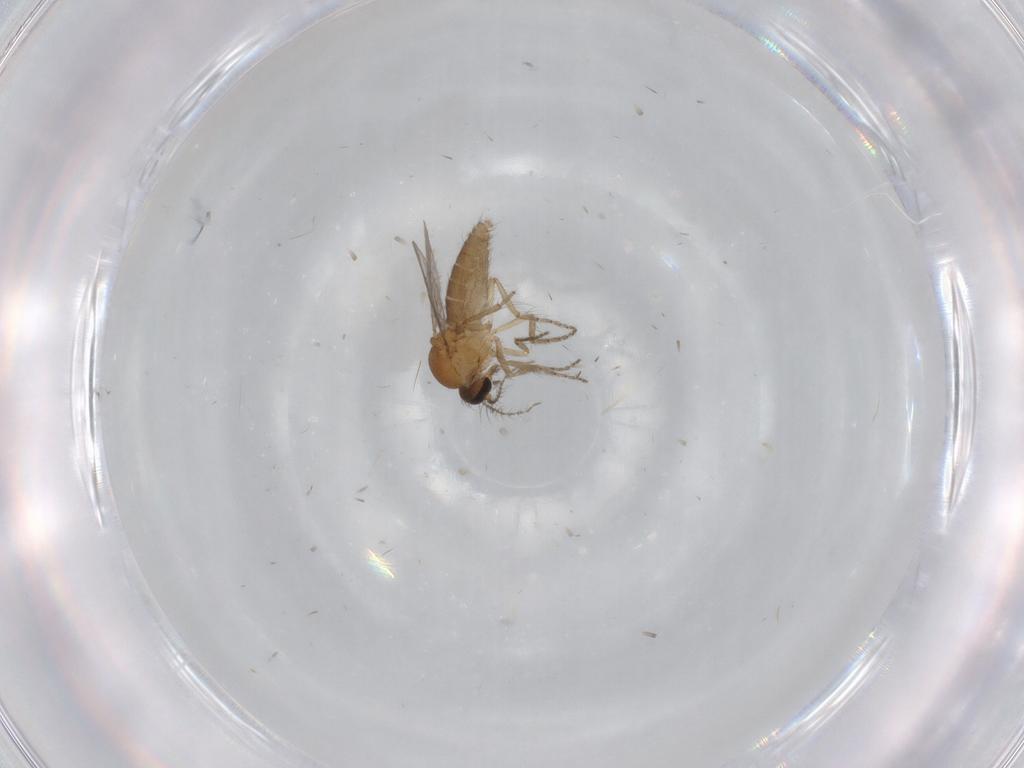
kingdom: Animalia
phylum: Arthropoda
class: Insecta
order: Diptera
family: Ceratopogonidae
